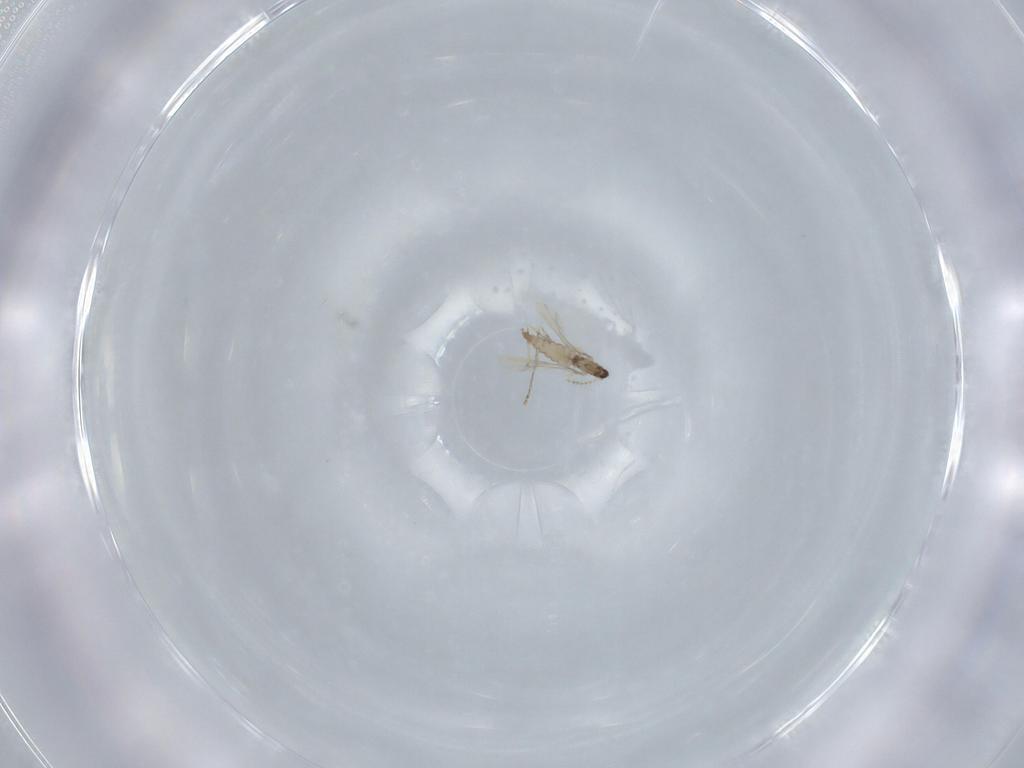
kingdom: Animalia
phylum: Arthropoda
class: Insecta
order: Diptera
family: Cecidomyiidae
